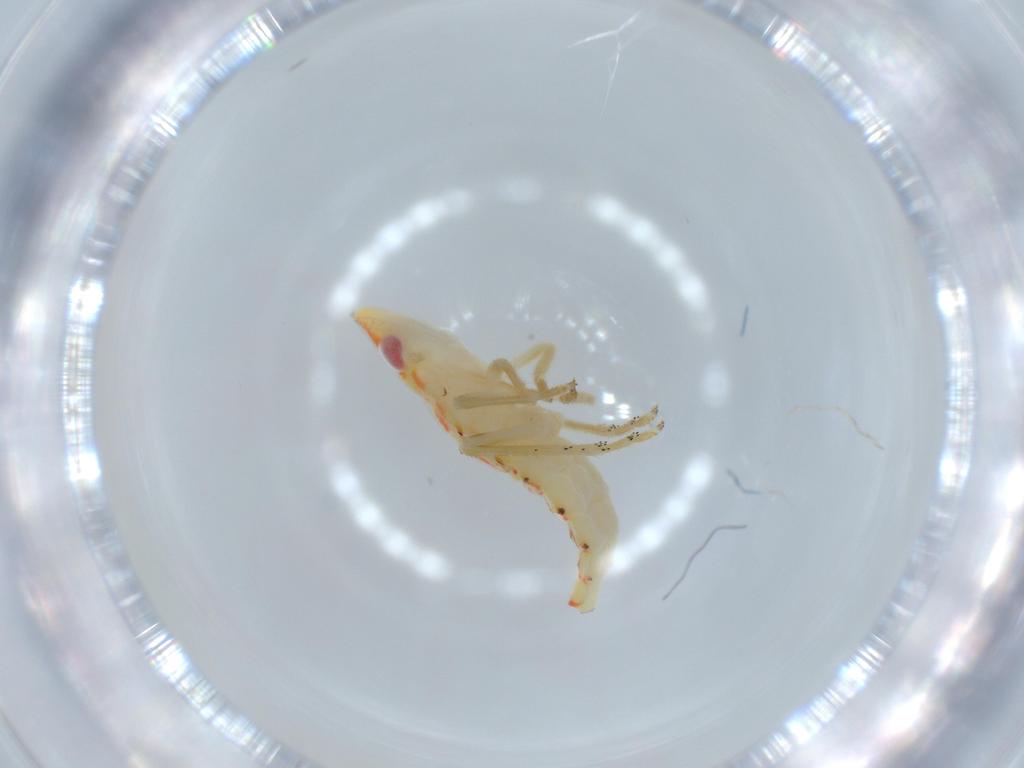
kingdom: Animalia
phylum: Arthropoda
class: Insecta
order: Hemiptera
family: Tropiduchidae
